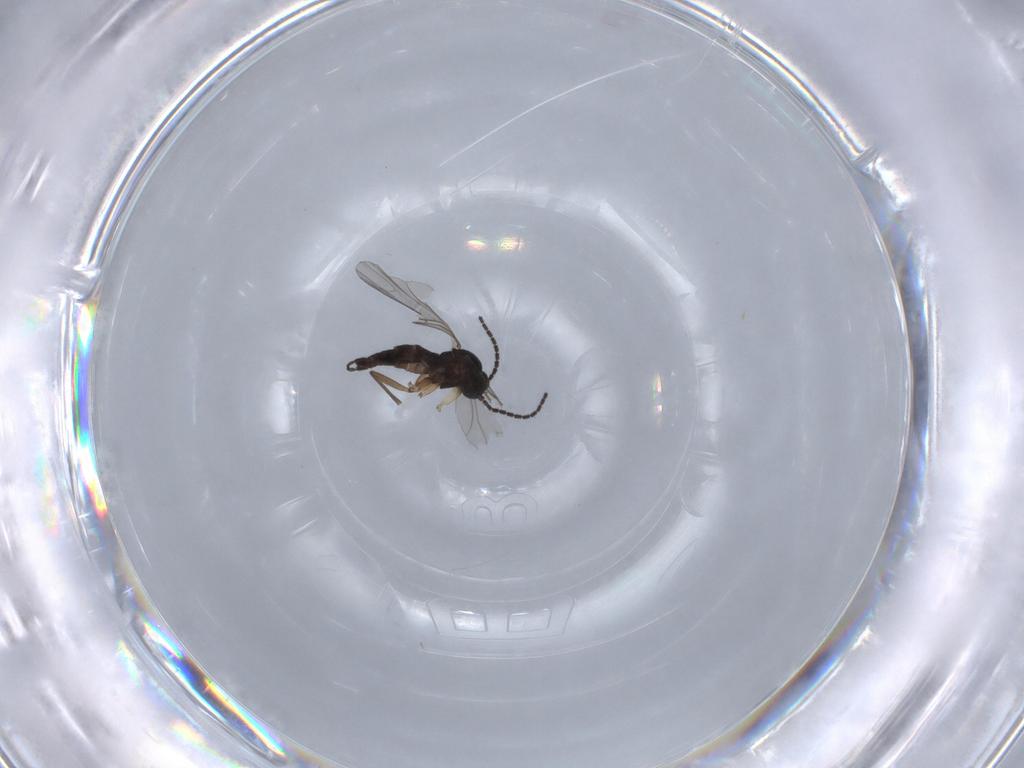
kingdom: Animalia
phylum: Arthropoda
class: Insecta
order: Diptera
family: Sciaridae
